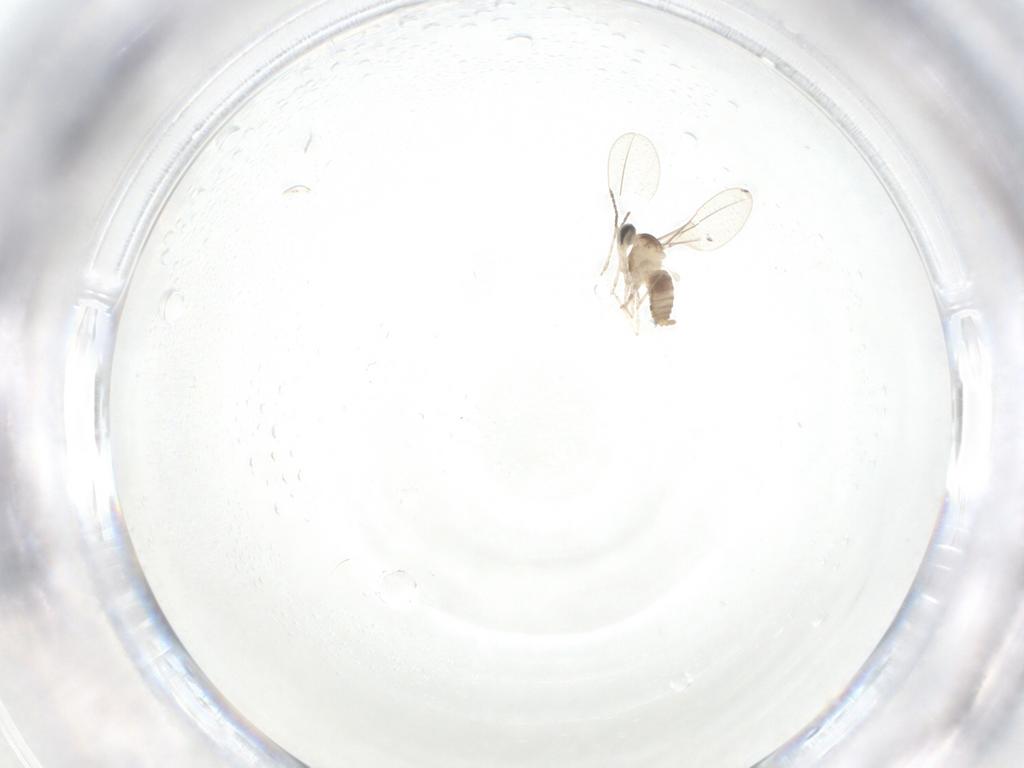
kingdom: Animalia
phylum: Arthropoda
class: Insecta
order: Diptera
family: Cecidomyiidae
